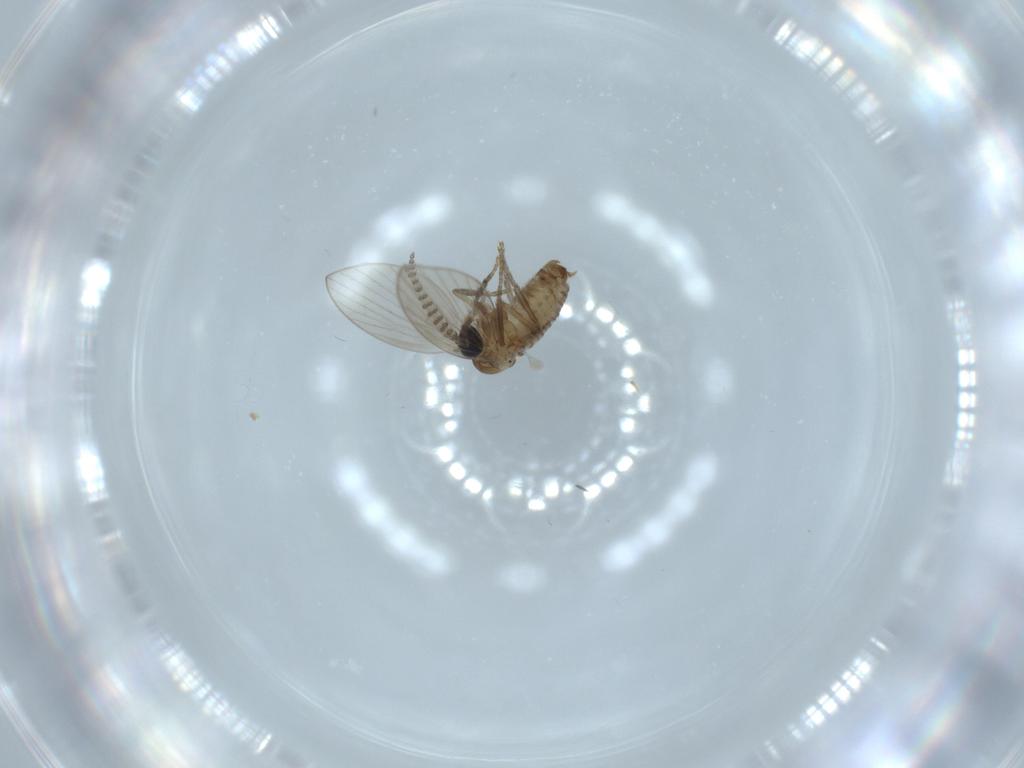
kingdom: Animalia
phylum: Arthropoda
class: Insecta
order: Diptera
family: Psychodidae
